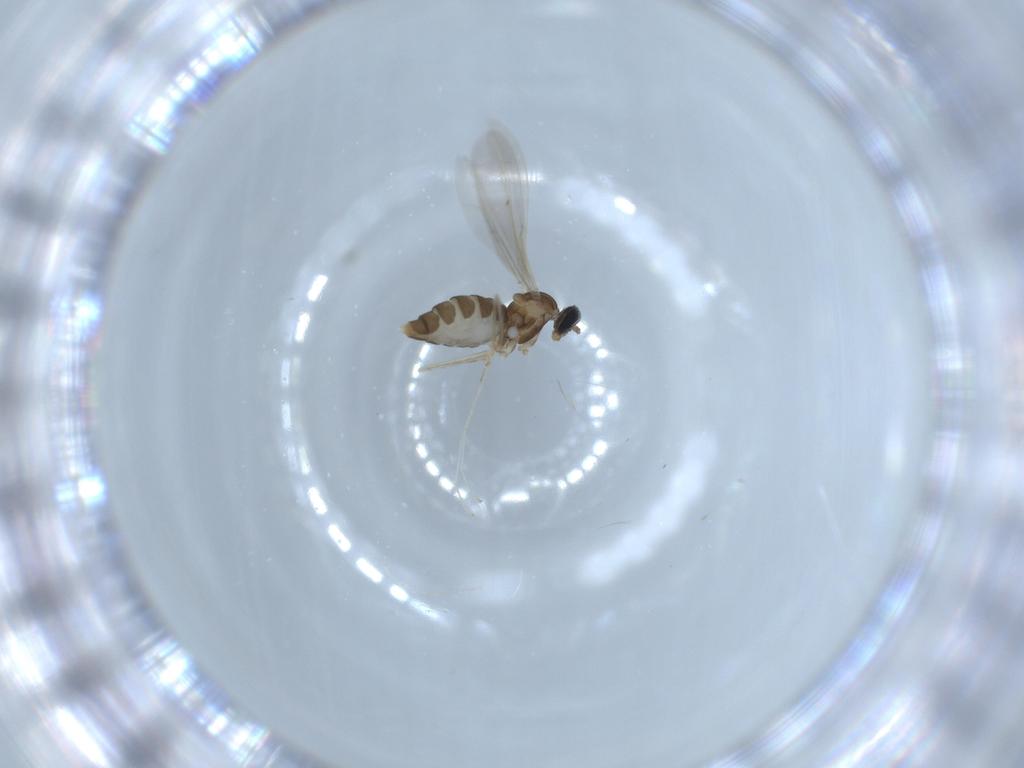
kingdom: Animalia
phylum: Arthropoda
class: Insecta
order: Diptera
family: Cecidomyiidae
